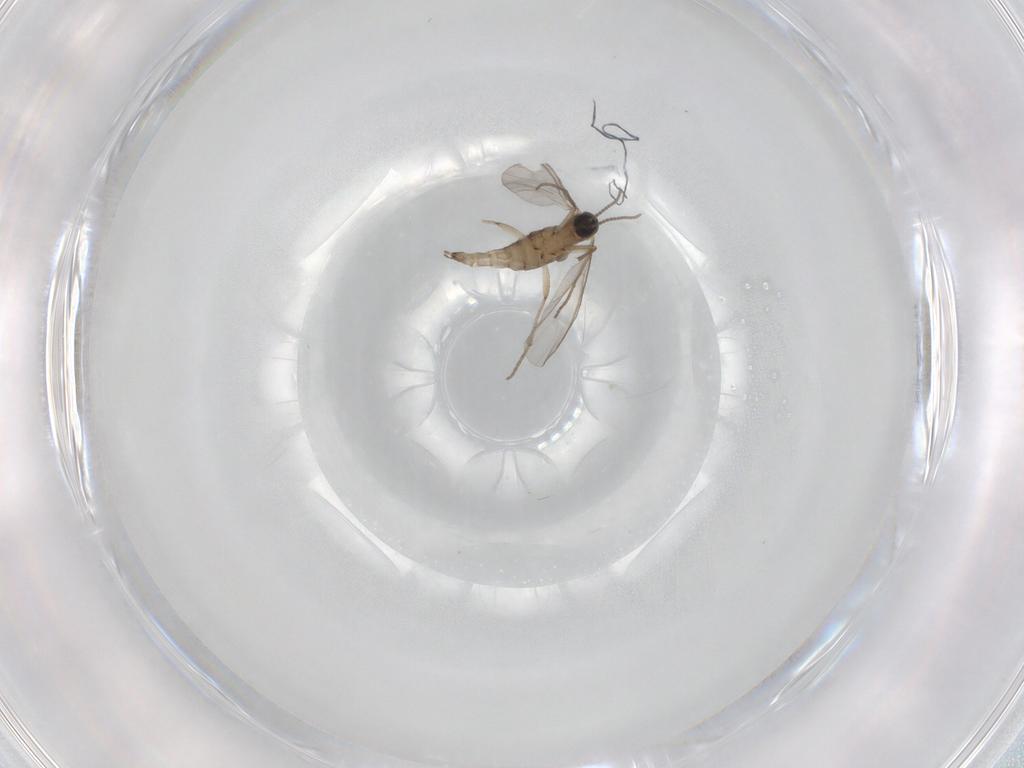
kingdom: Animalia
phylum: Arthropoda
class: Insecta
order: Diptera
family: Sciaridae
